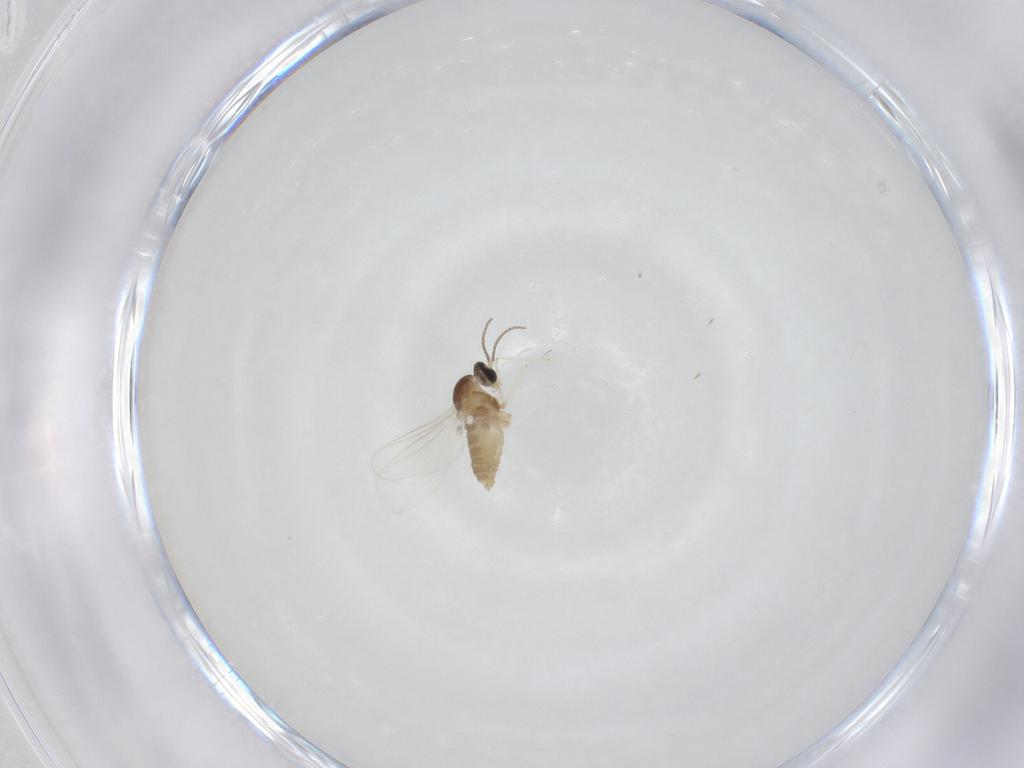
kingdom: Animalia
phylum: Arthropoda
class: Insecta
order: Diptera
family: Cecidomyiidae
